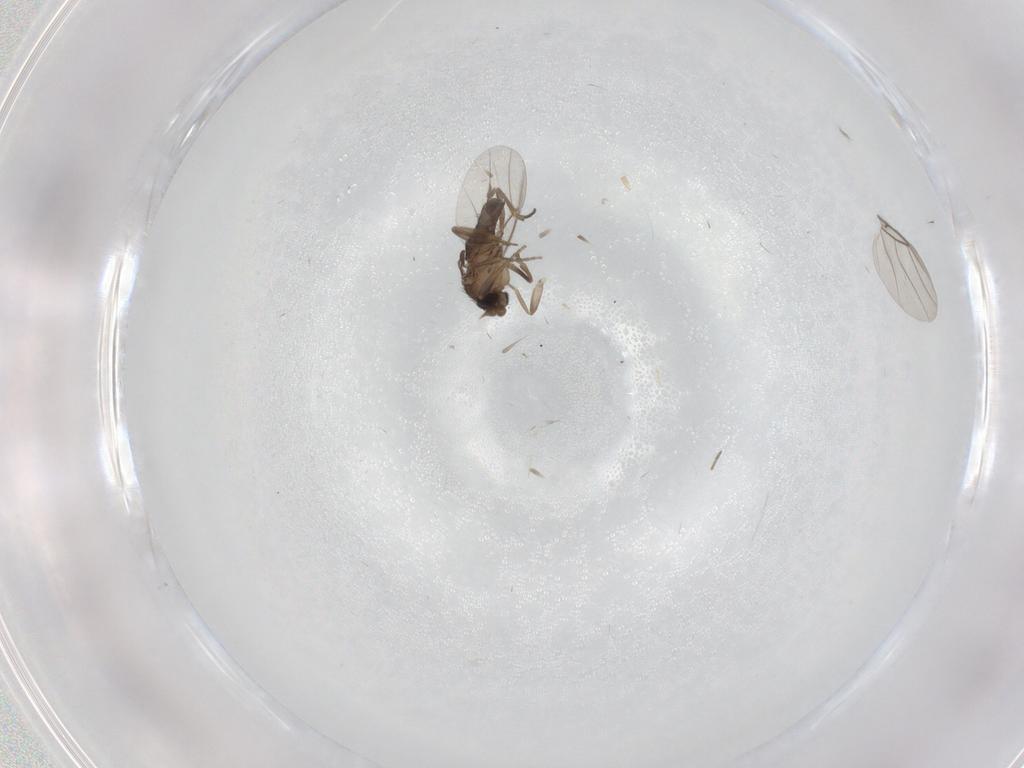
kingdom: Animalia
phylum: Arthropoda
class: Insecta
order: Diptera
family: Phoridae
